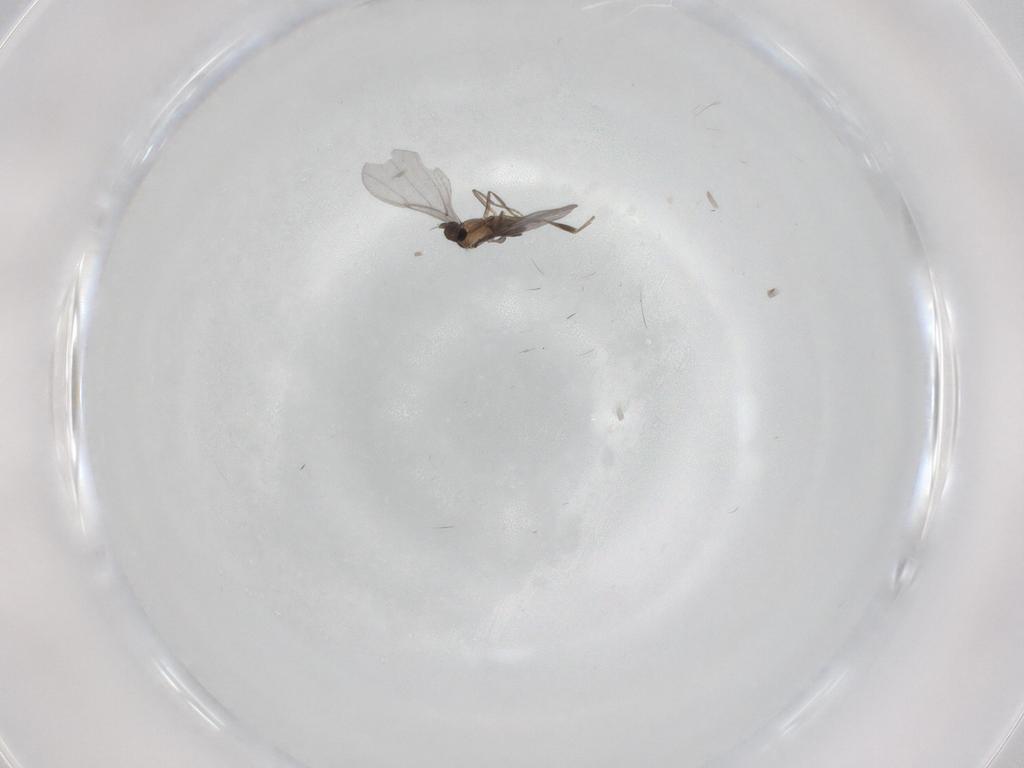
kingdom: Animalia
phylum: Arthropoda
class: Insecta
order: Diptera
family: Phoridae
